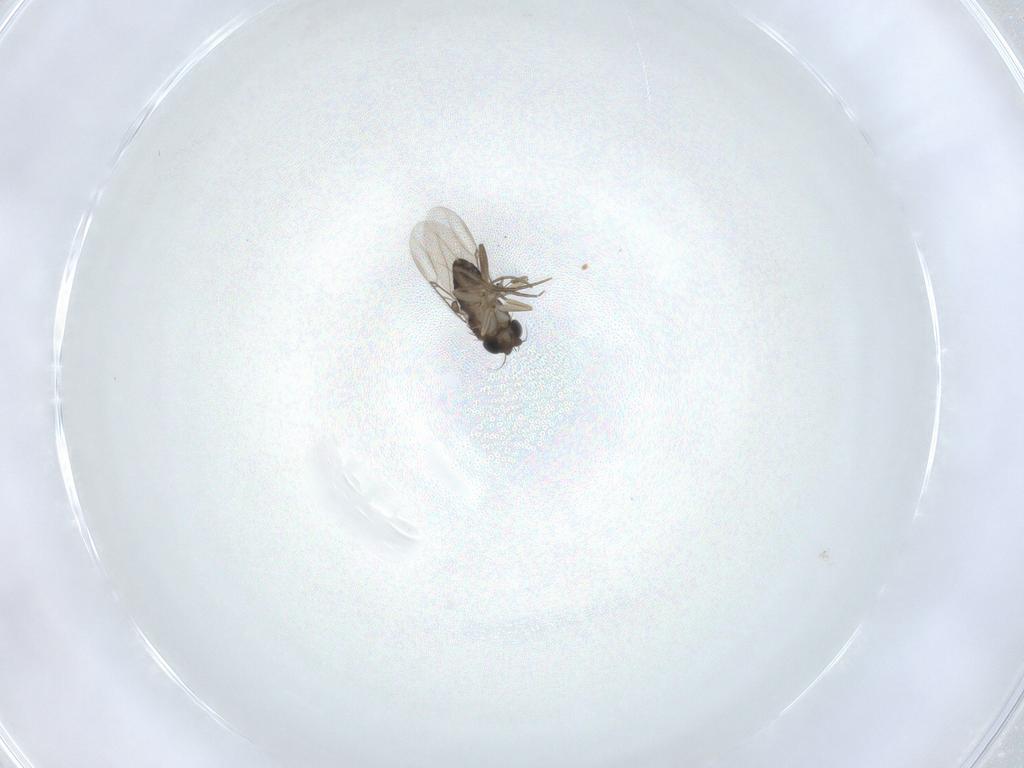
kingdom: Animalia
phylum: Arthropoda
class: Insecta
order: Diptera
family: Phoridae
